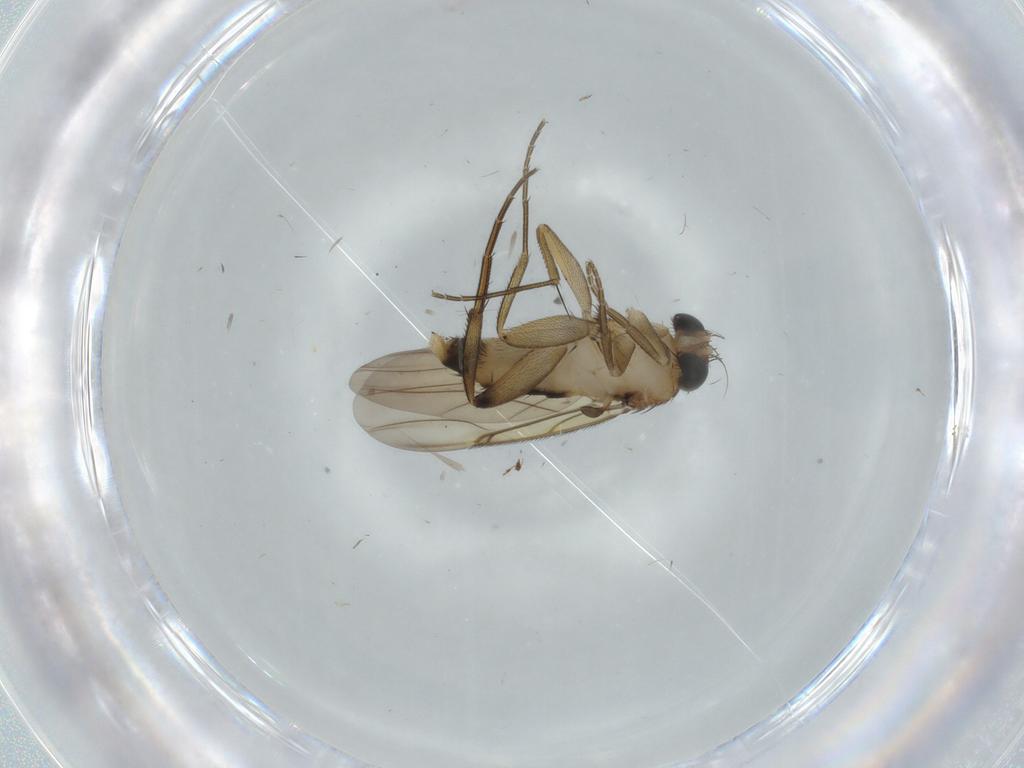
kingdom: Animalia
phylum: Arthropoda
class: Insecta
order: Diptera
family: Phoridae
